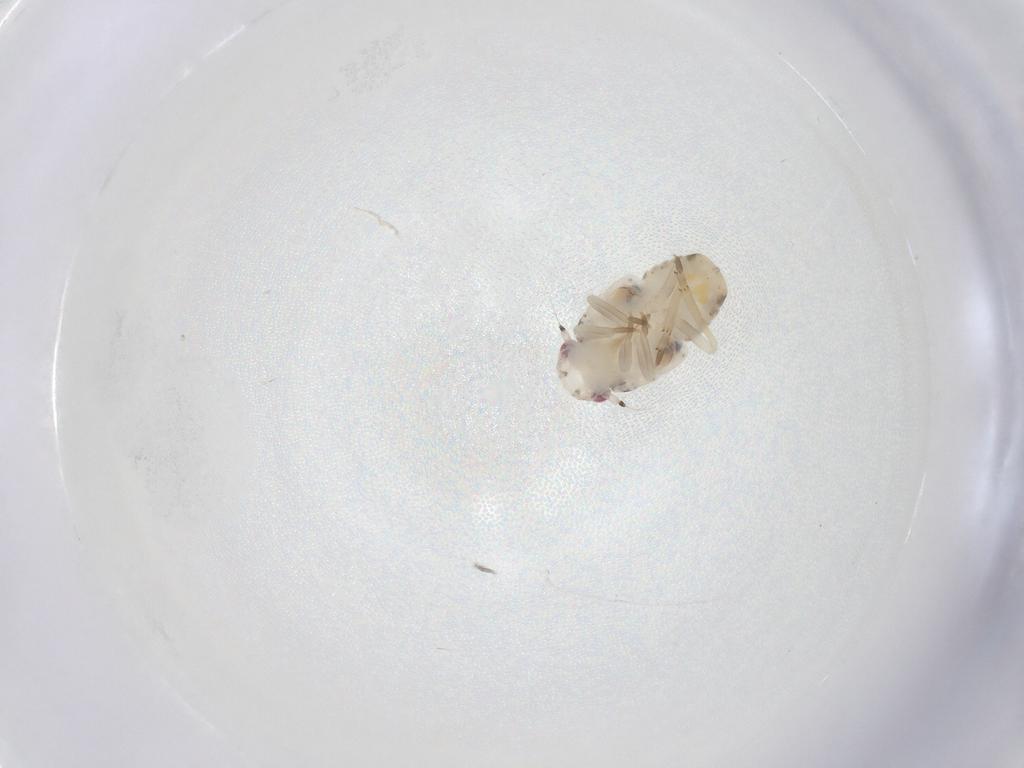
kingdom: Animalia
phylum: Arthropoda
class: Insecta
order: Hemiptera
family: Flatidae
